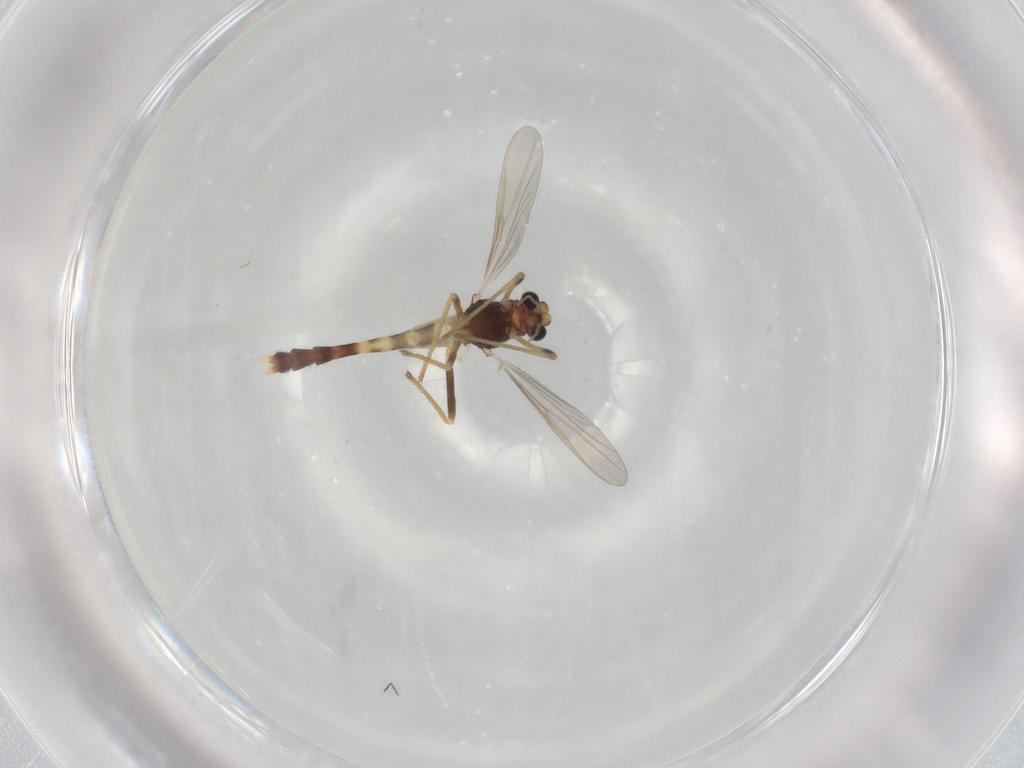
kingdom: Animalia
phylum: Arthropoda
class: Insecta
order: Diptera
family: Ceratopogonidae
